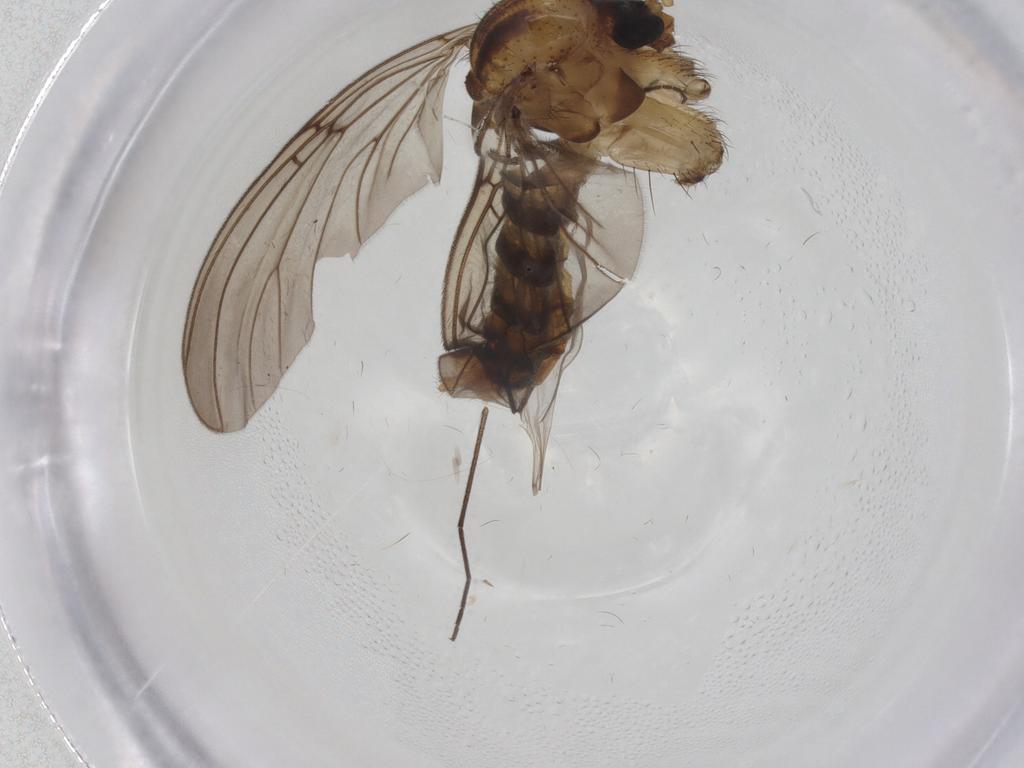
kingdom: Animalia
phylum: Arthropoda
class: Insecta
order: Diptera
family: Mycetophilidae
